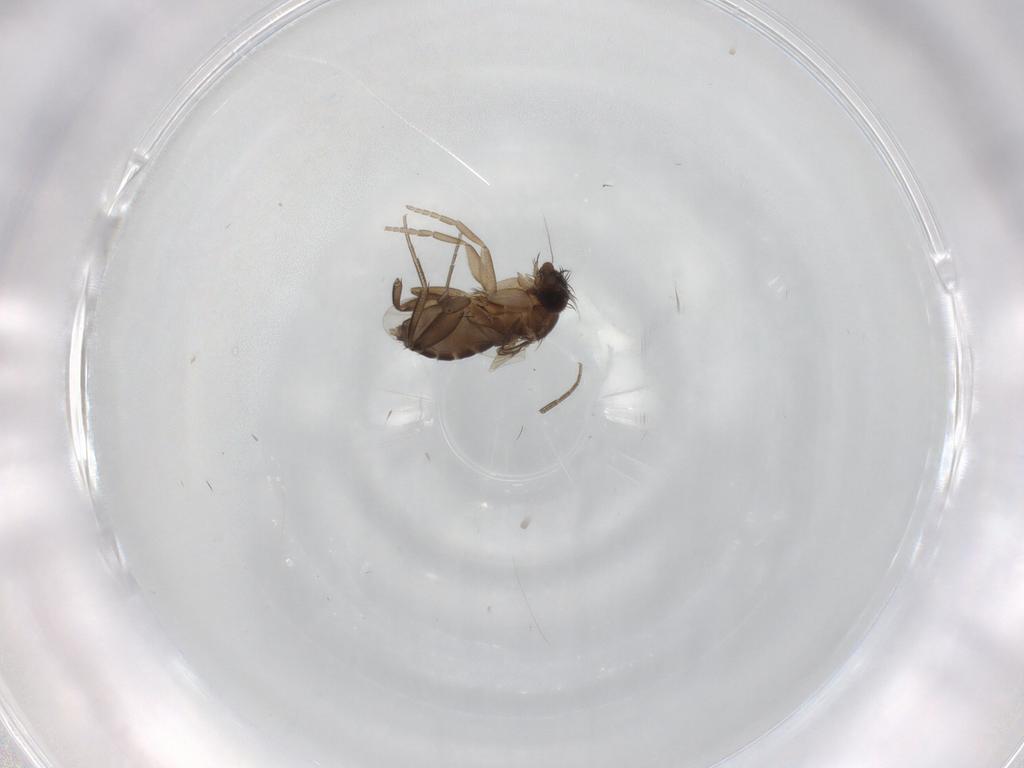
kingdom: Animalia
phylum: Arthropoda
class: Insecta
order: Diptera
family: Phoridae
